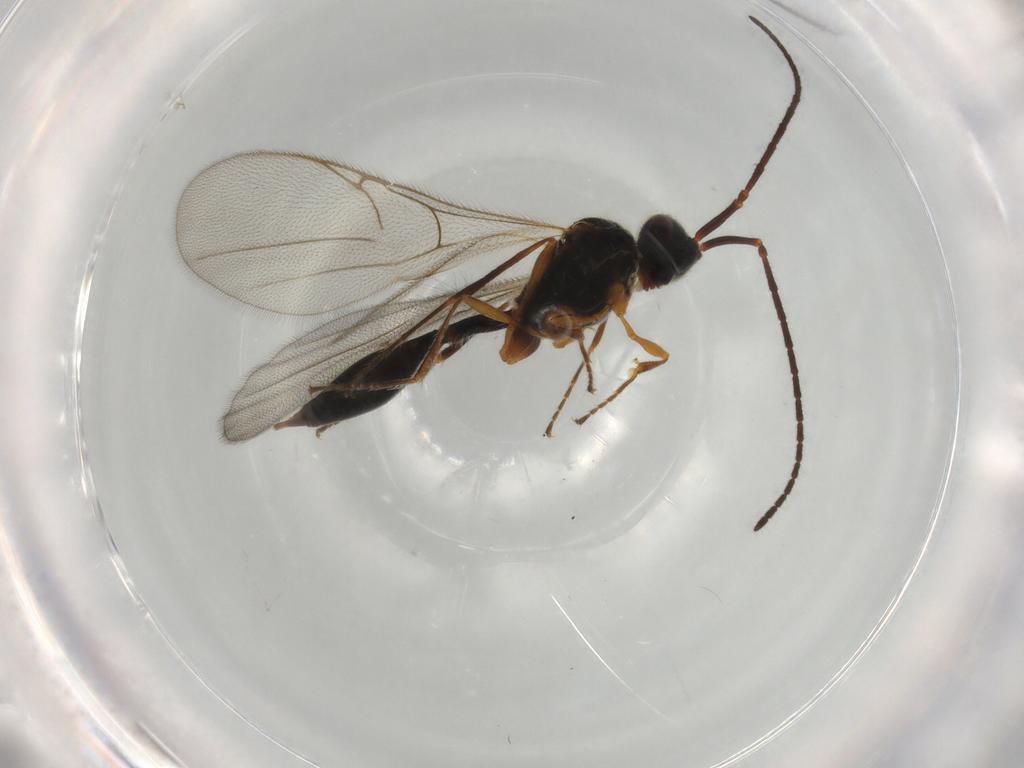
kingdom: Animalia
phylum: Arthropoda
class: Insecta
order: Hymenoptera
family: Diapriidae
